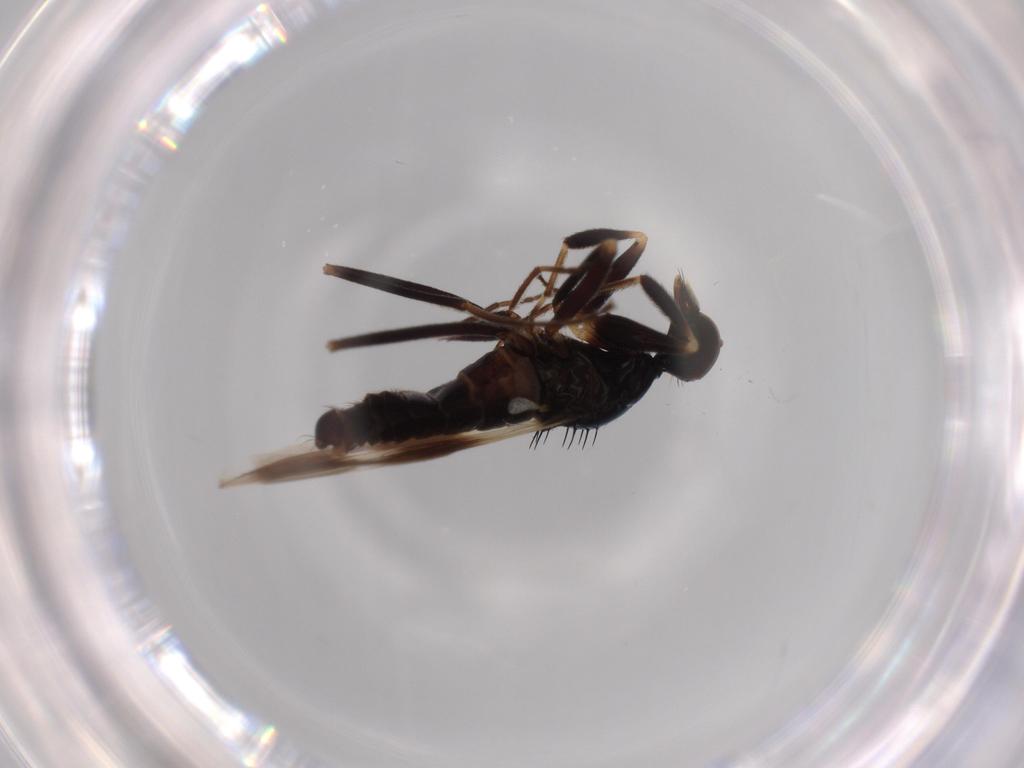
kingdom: Animalia
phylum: Arthropoda
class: Insecta
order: Diptera
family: Hybotidae
